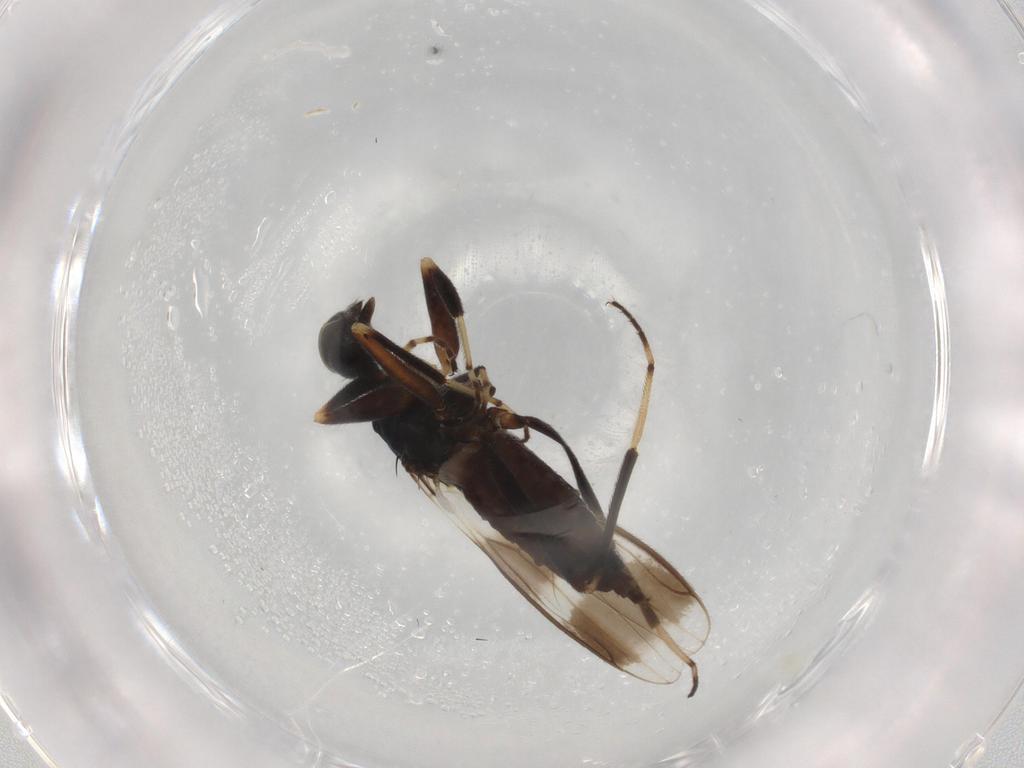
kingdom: Animalia
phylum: Arthropoda
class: Insecta
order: Diptera
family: Hybotidae
